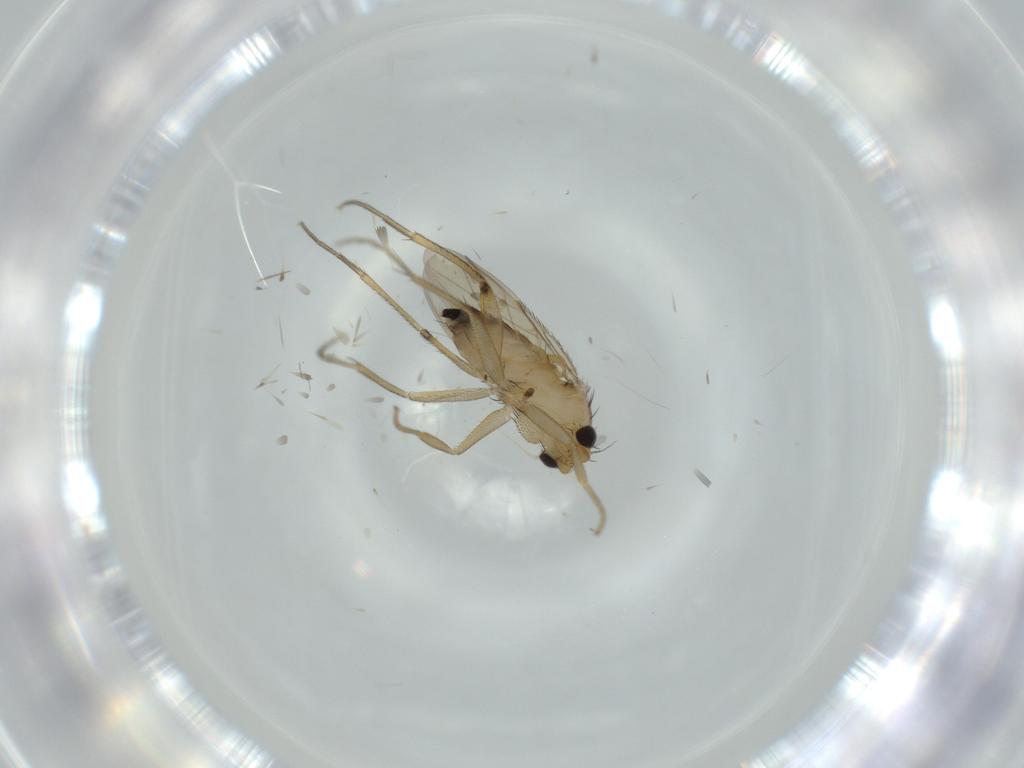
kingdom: Animalia
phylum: Arthropoda
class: Insecta
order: Diptera
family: Phoridae
